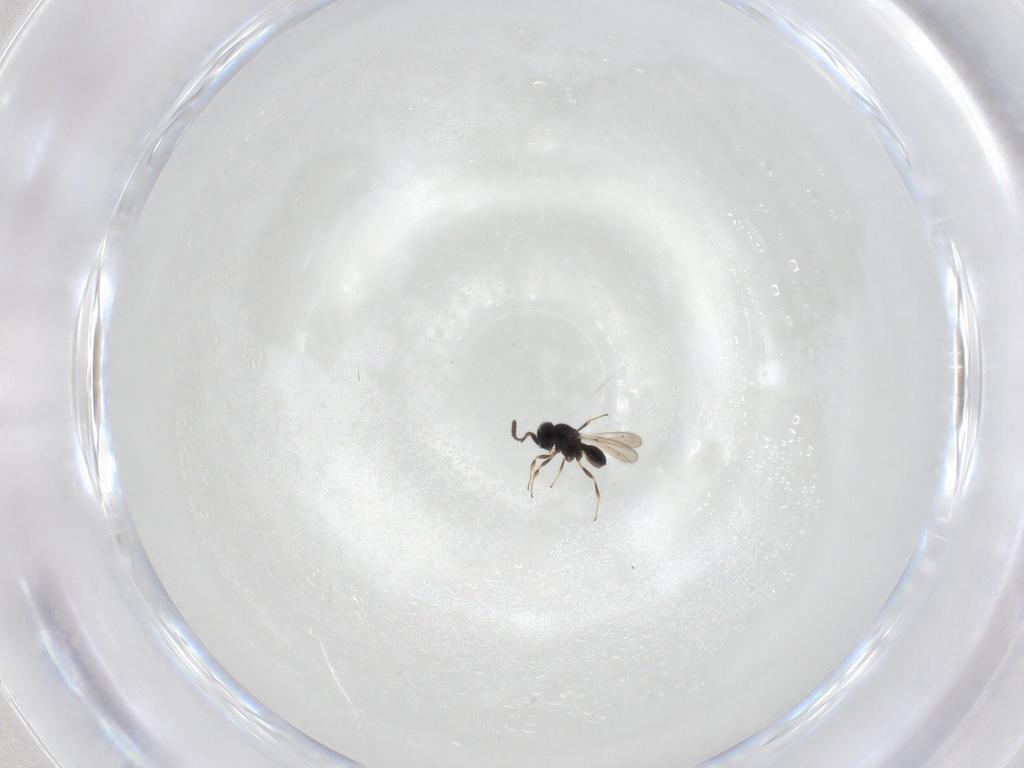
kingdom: Animalia
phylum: Arthropoda
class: Insecta
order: Hymenoptera
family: Scelionidae
